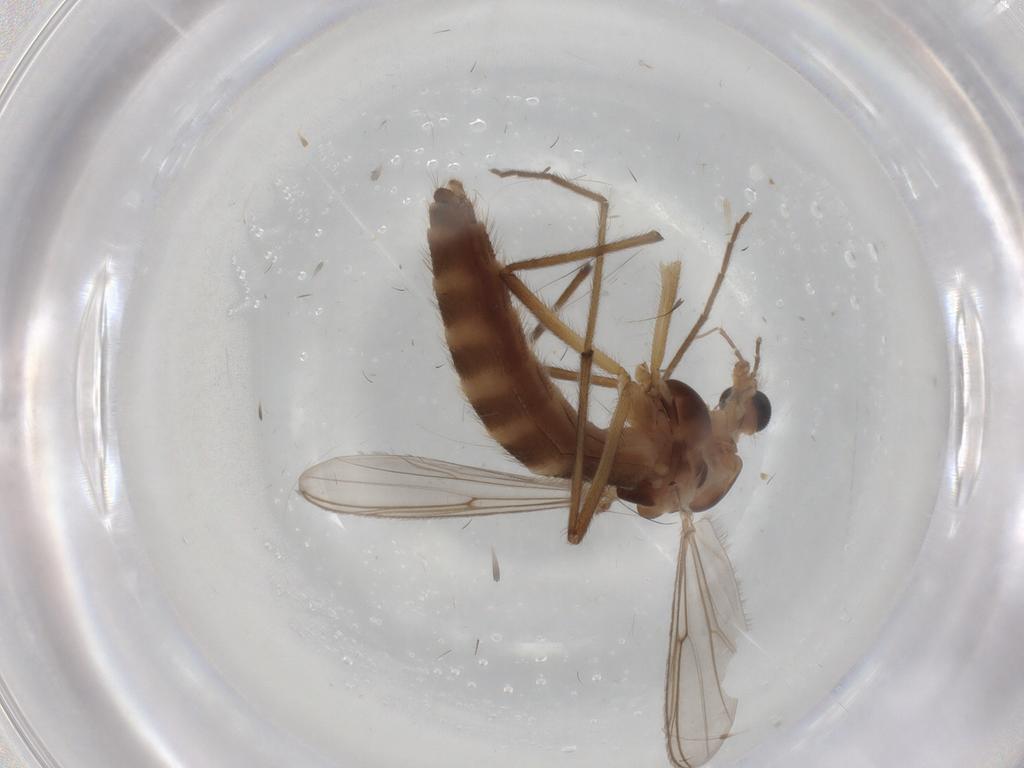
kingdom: Animalia
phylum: Arthropoda
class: Insecta
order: Diptera
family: Chironomidae
